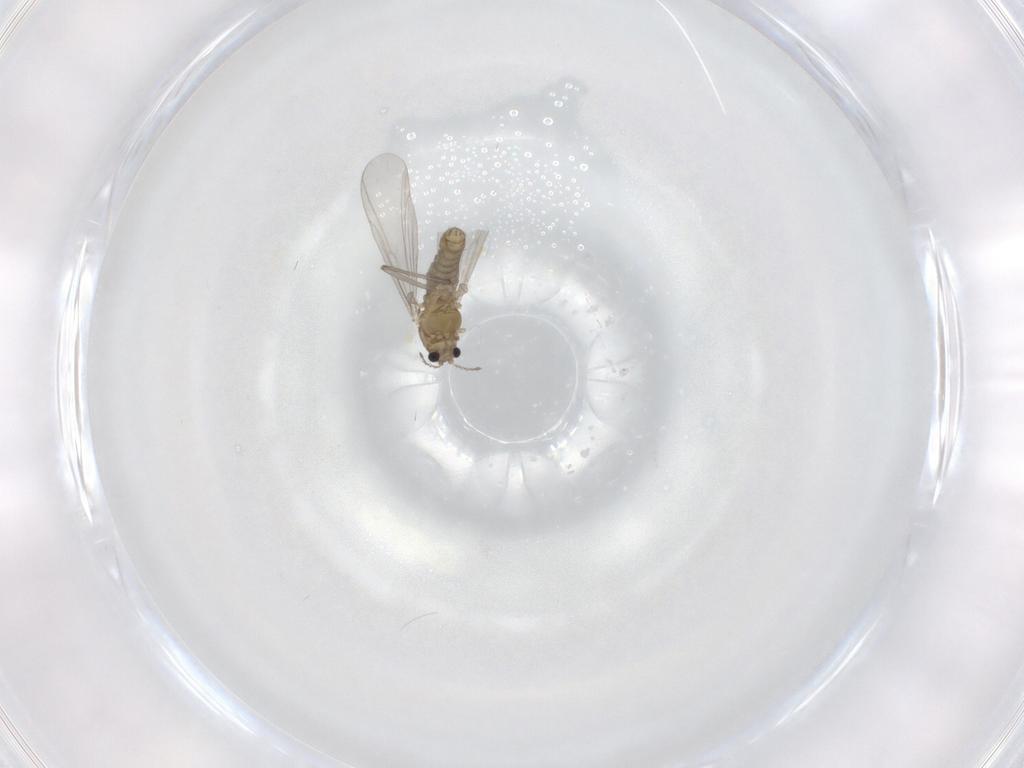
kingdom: Animalia
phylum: Arthropoda
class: Insecta
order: Diptera
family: Chironomidae
